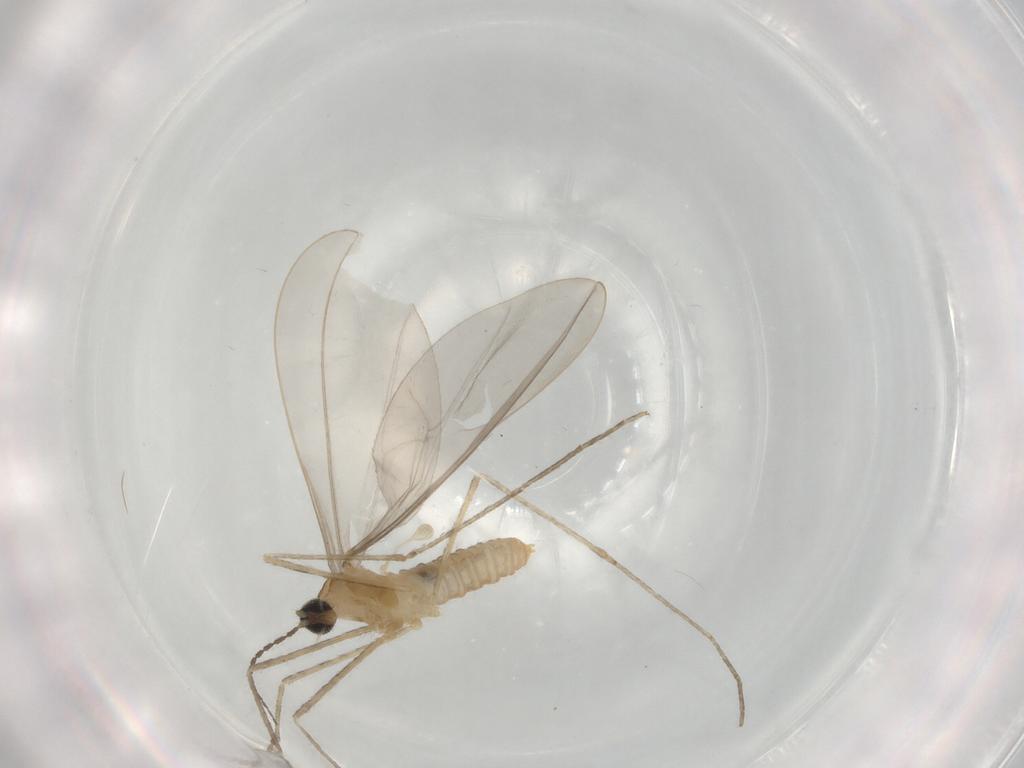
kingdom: Animalia
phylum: Arthropoda
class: Insecta
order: Diptera
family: Cecidomyiidae
